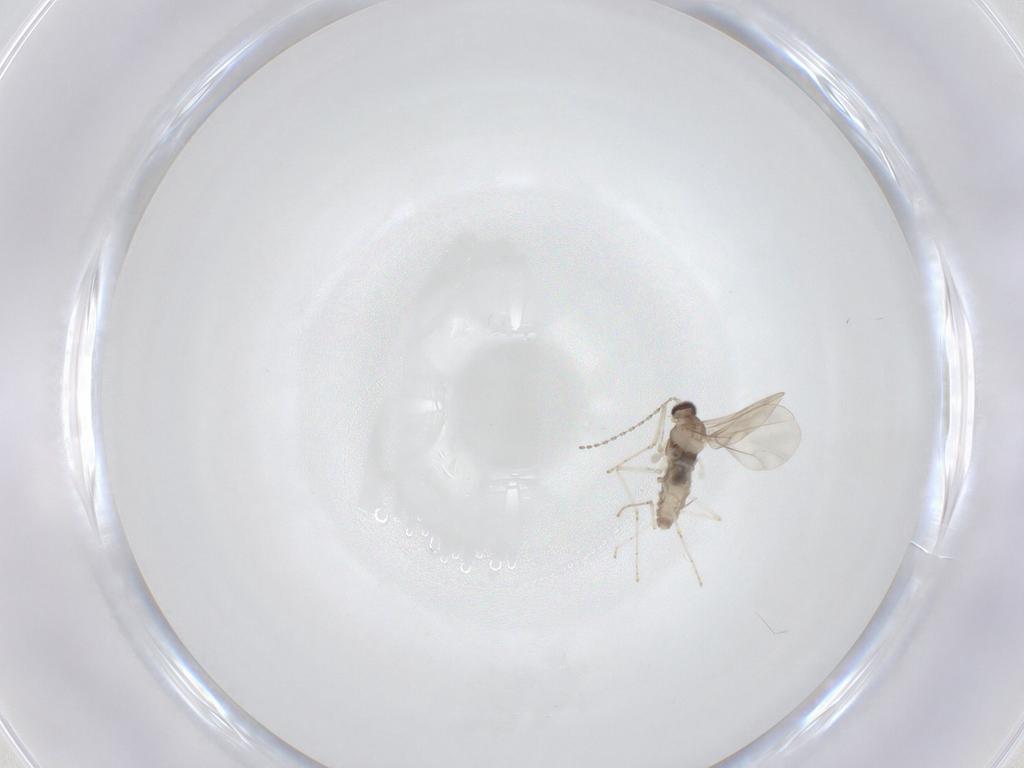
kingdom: Animalia
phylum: Arthropoda
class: Insecta
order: Diptera
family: Cecidomyiidae
